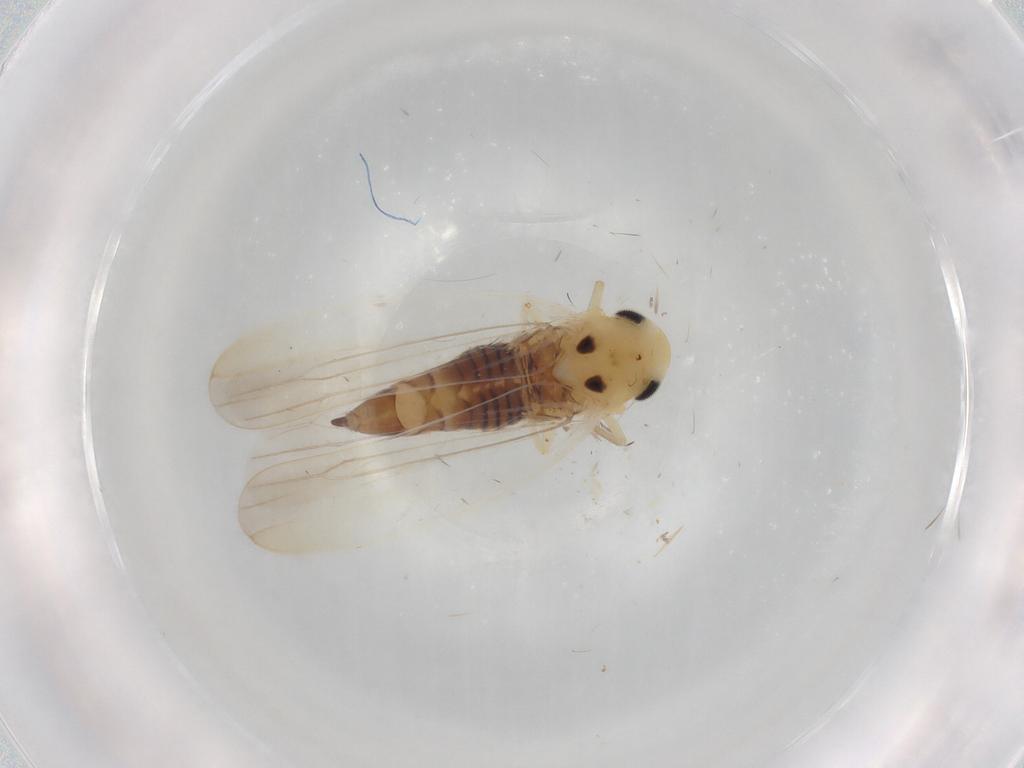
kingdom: Animalia
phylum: Arthropoda
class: Insecta
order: Hemiptera
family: Cicadellidae
